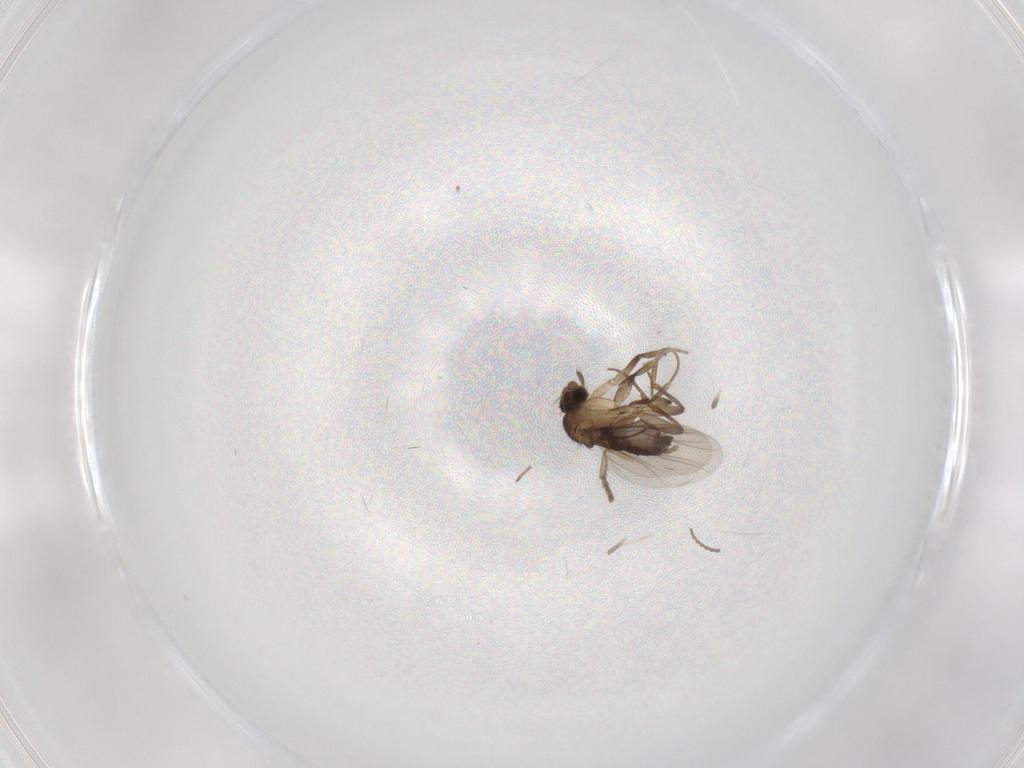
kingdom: Animalia
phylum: Arthropoda
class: Insecta
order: Diptera
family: Psychodidae
